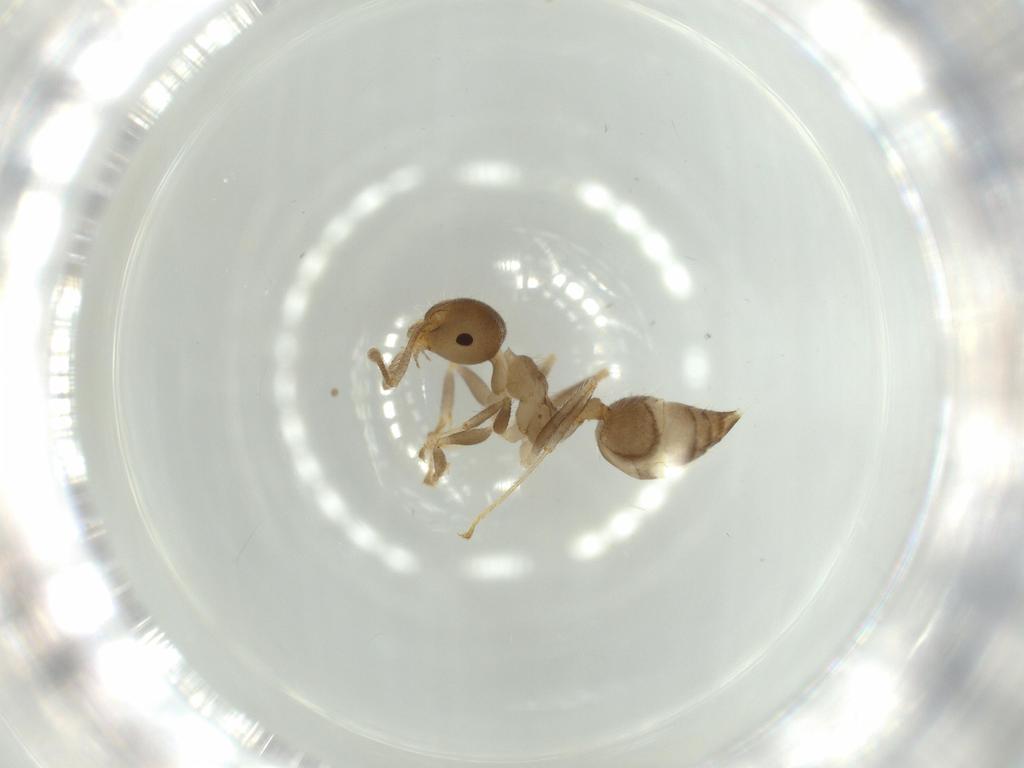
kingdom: Animalia
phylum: Arthropoda
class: Insecta
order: Hymenoptera
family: Formicidae
